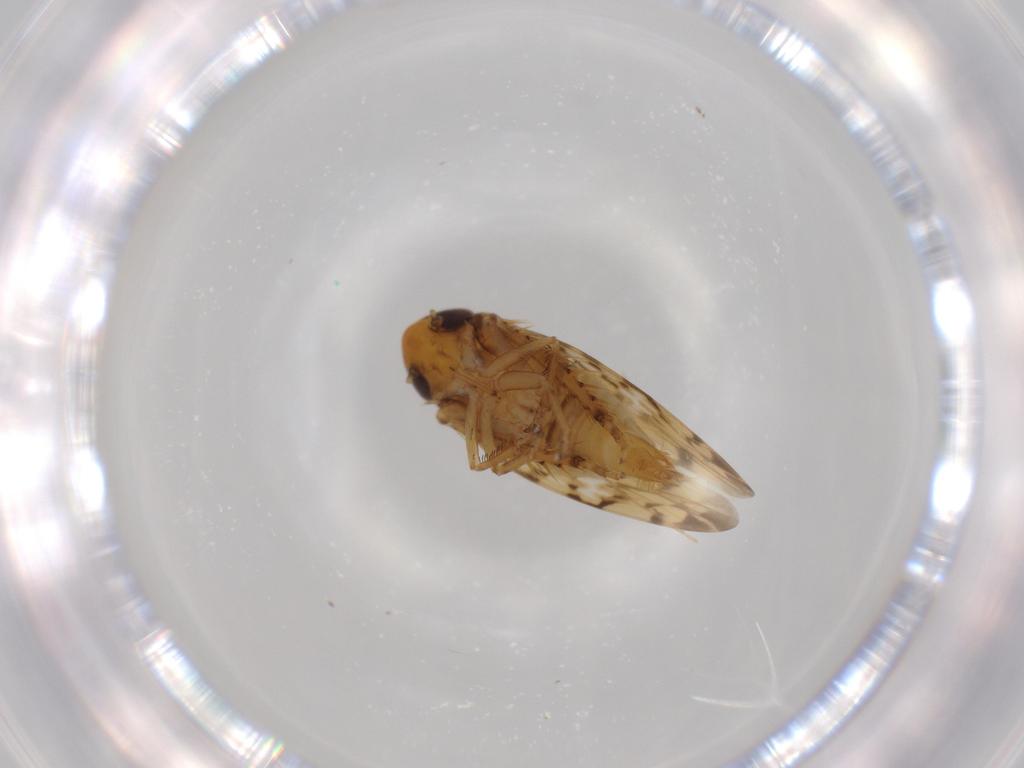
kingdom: Animalia
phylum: Arthropoda
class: Insecta
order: Hemiptera
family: Cicadellidae
